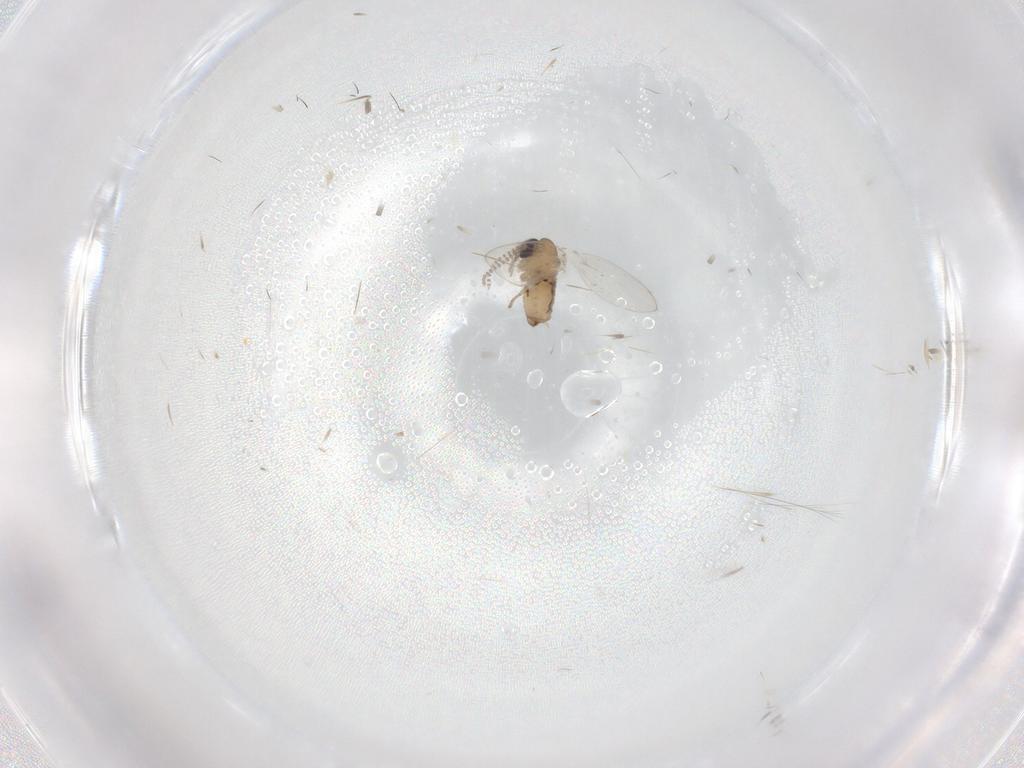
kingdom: Animalia
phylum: Arthropoda
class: Insecta
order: Diptera
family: Psychodidae
